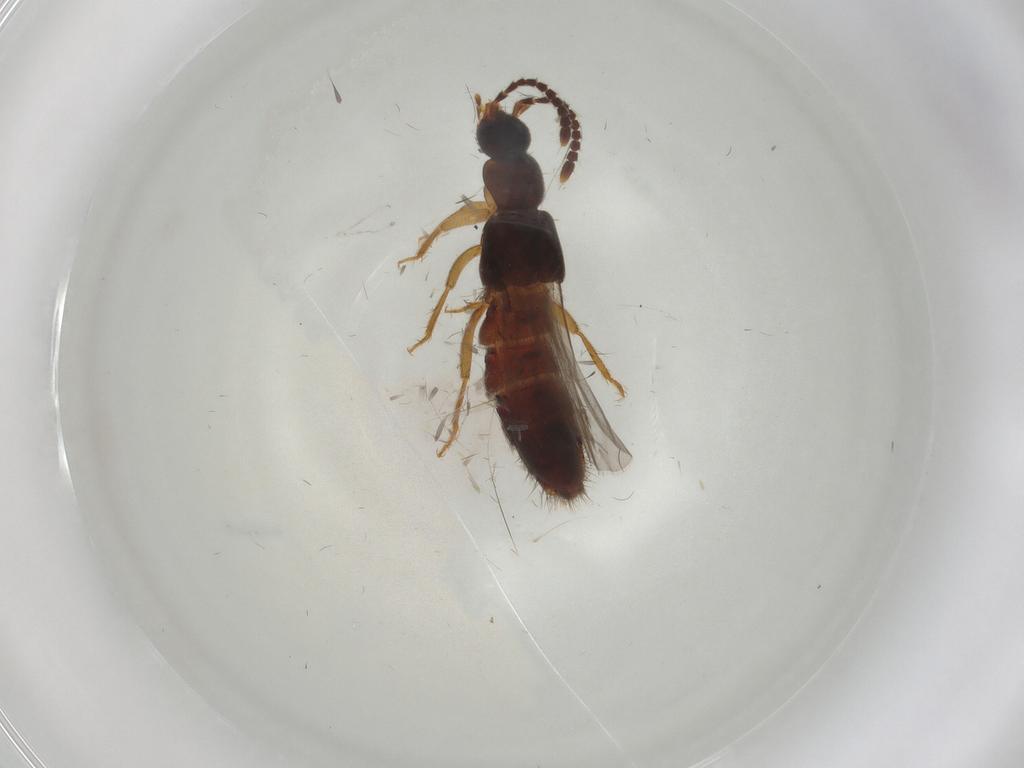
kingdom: Animalia
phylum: Arthropoda
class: Insecta
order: Coleoptera
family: Staphylinidae
